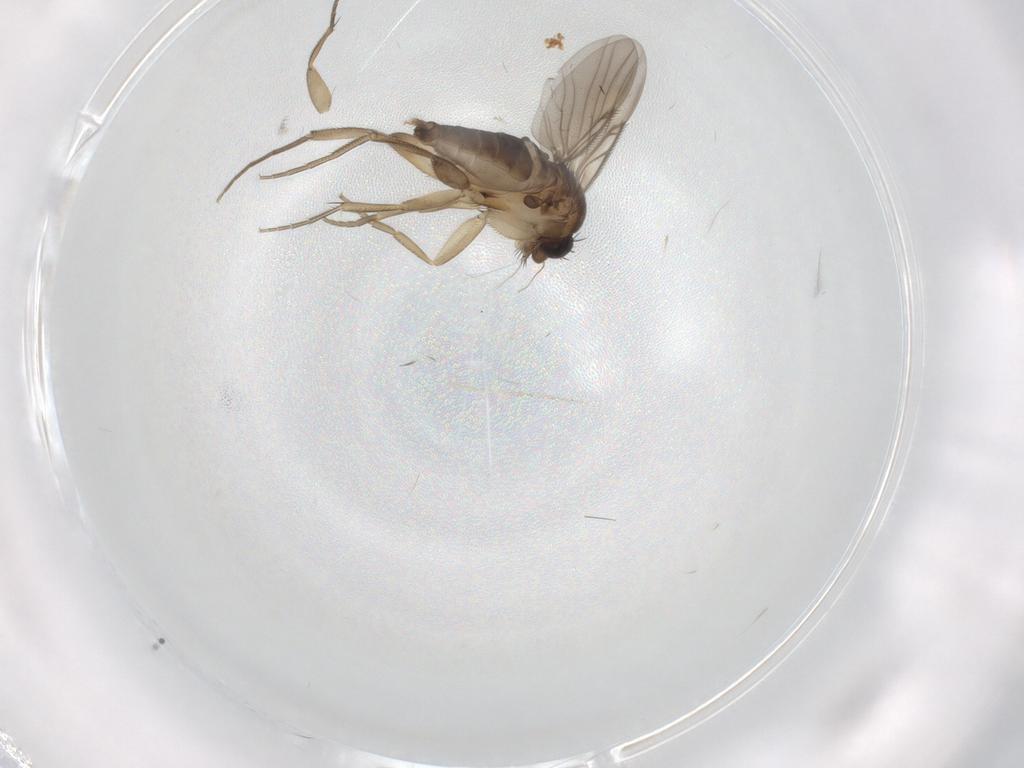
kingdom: Animalia
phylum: Arthropoda
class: Insecta
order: Diptera
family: Phoridae
